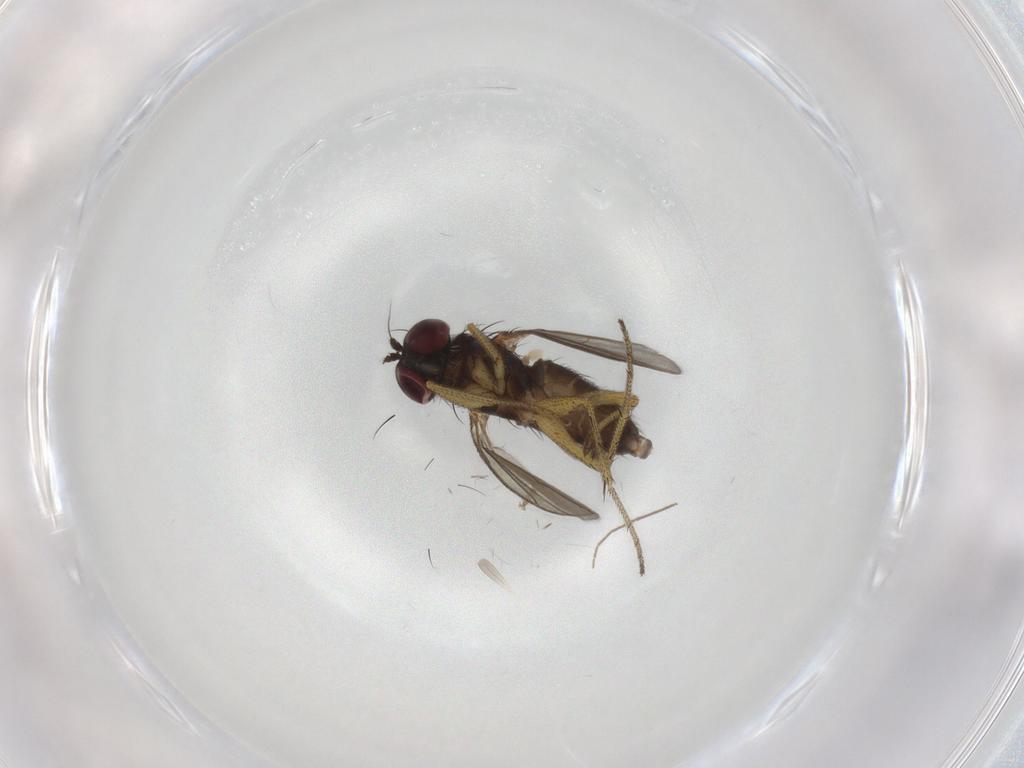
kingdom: Animalia
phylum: Arthropoda
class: Insecta
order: Diptera
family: Dolichopodidae
